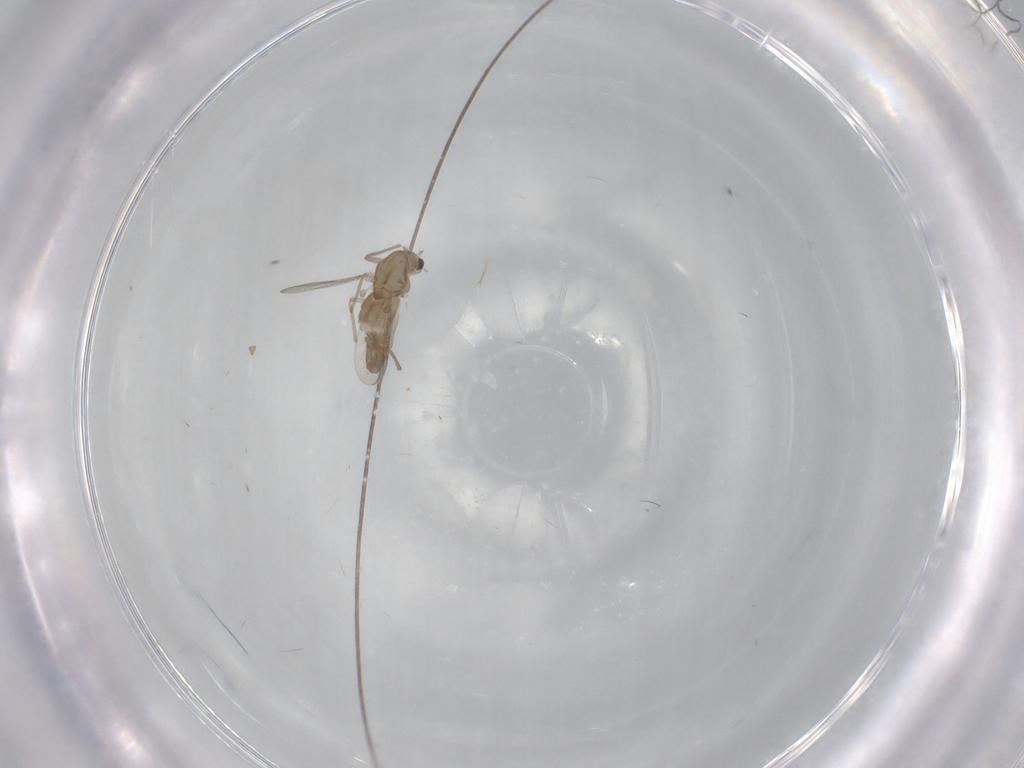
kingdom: Animalia
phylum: Arthropoda
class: Insecta
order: Diptera
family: Chironomidae
